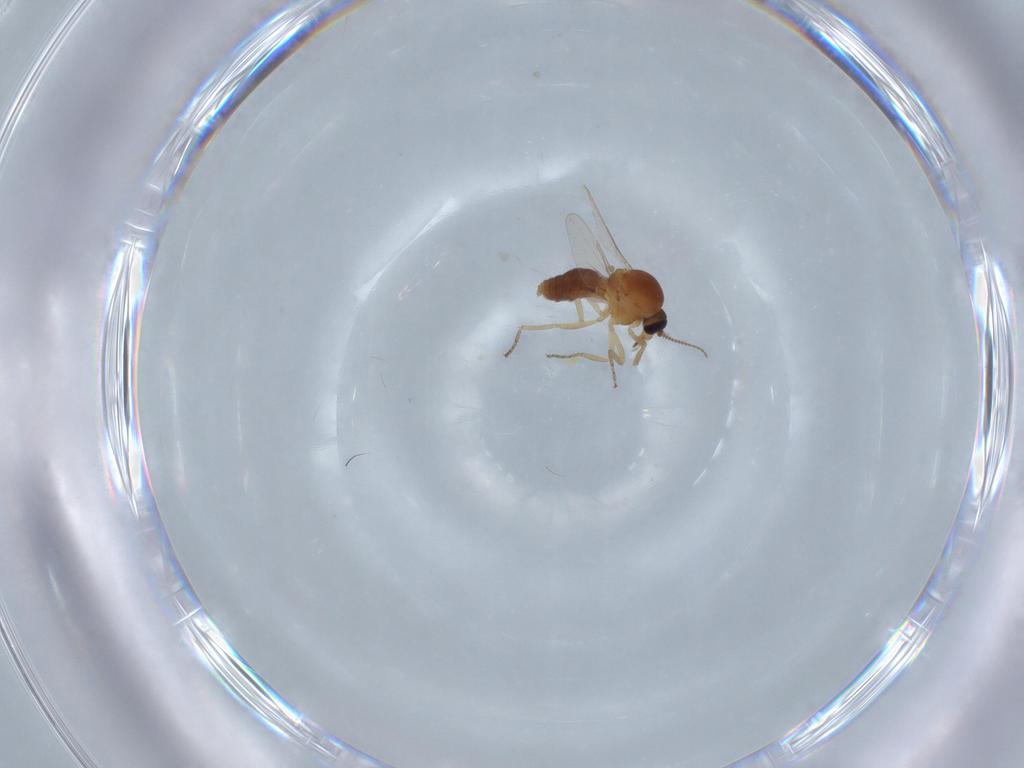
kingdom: Animalia
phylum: Arthropoda
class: Insecta
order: Diptera
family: Ceratopogonidae
